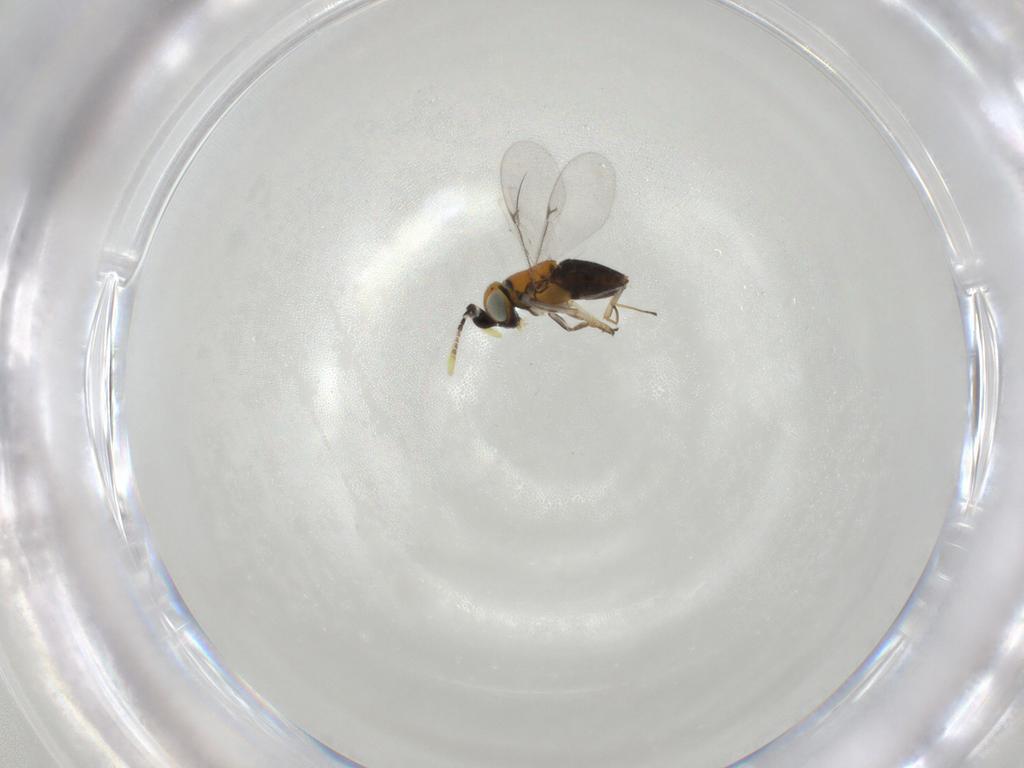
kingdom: Animalia
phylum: Arthropoda
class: Insecta
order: Hymenoptera
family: Encyrtidae
